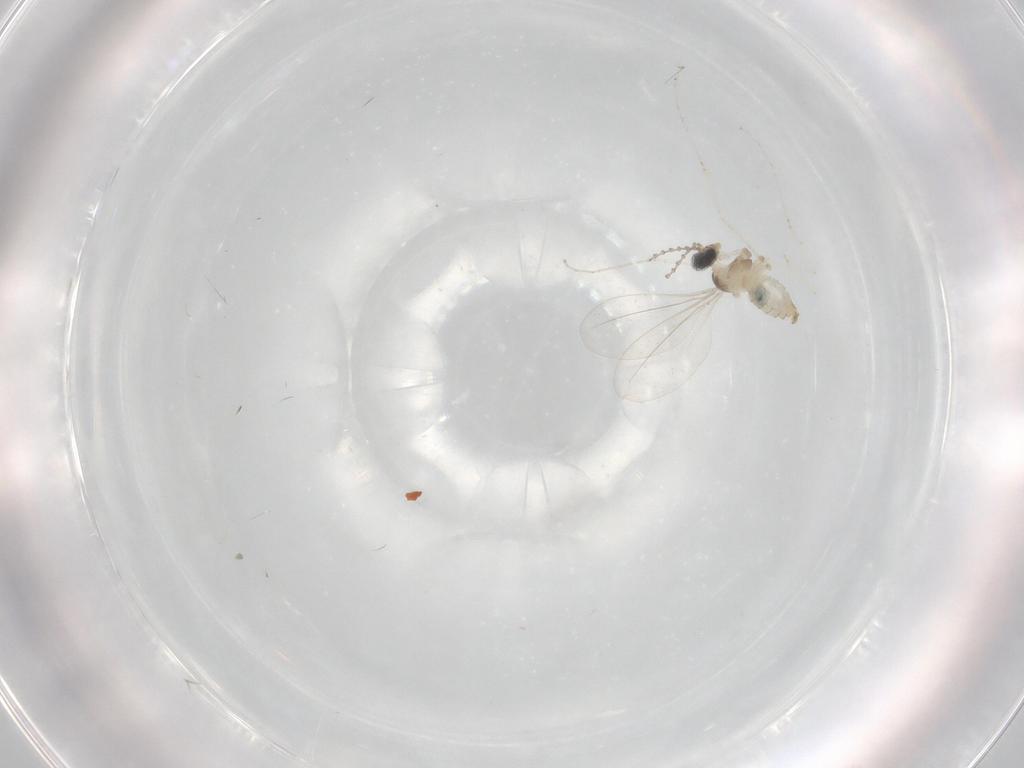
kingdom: Animalia
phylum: Arthropoda
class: Insecta
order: Diptera
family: Cecidomyiidae
